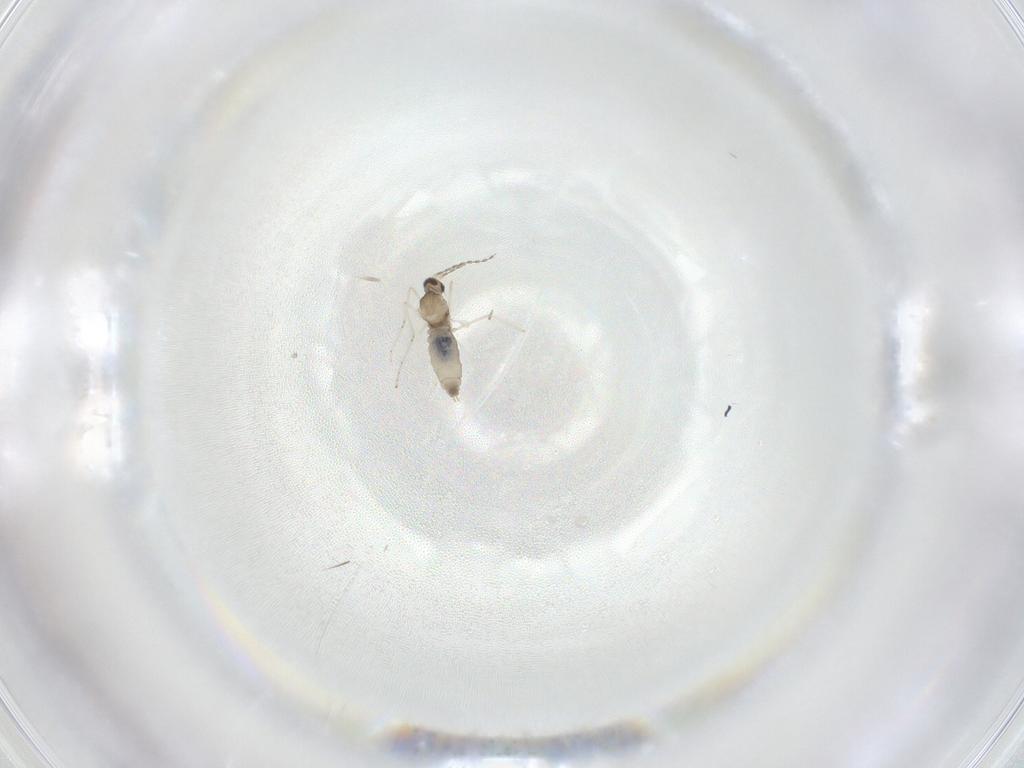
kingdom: Animalia
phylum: Arthropoda
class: Insecta
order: Diptera
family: Cecidomyiidae
